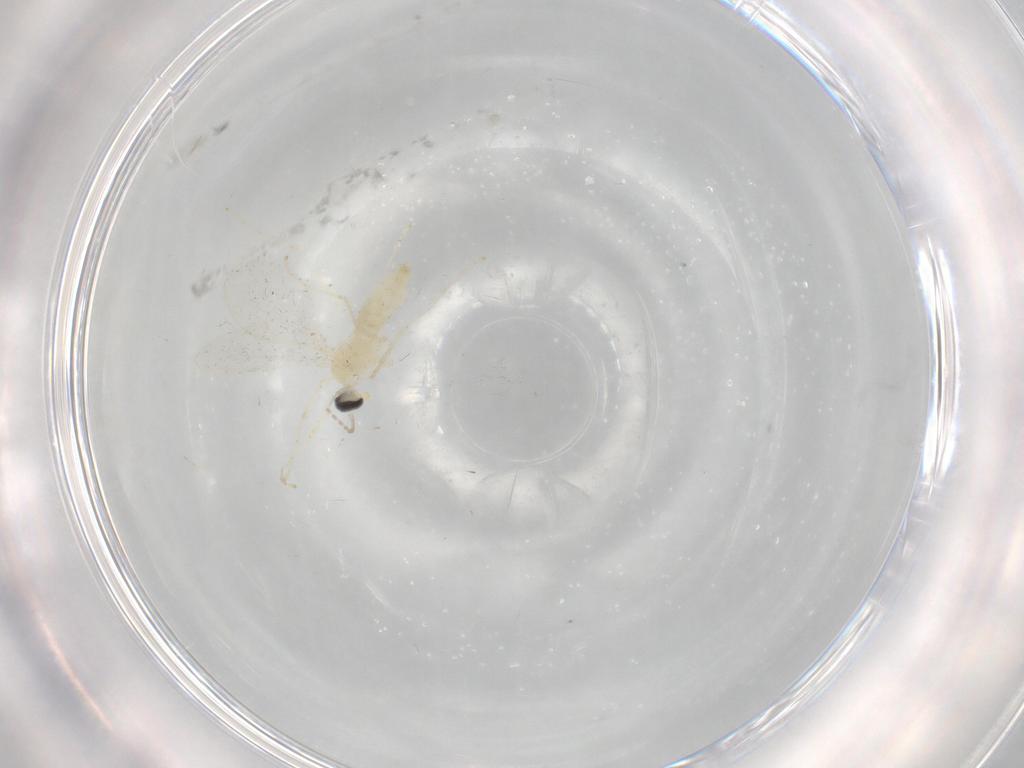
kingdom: Animalia
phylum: Arthropoda
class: Insecta
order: Diptera
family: Cecidomyiidae
